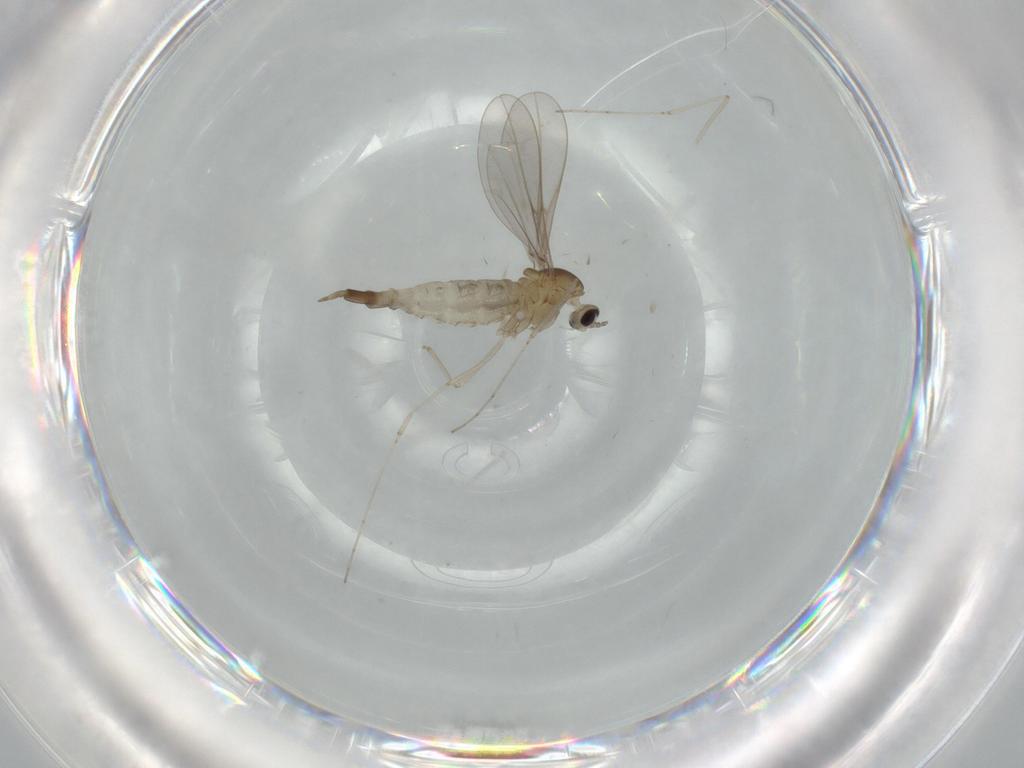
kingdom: Animalia
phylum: Arthropoda
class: Insecta
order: Diptera
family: Cecidomyiidae
